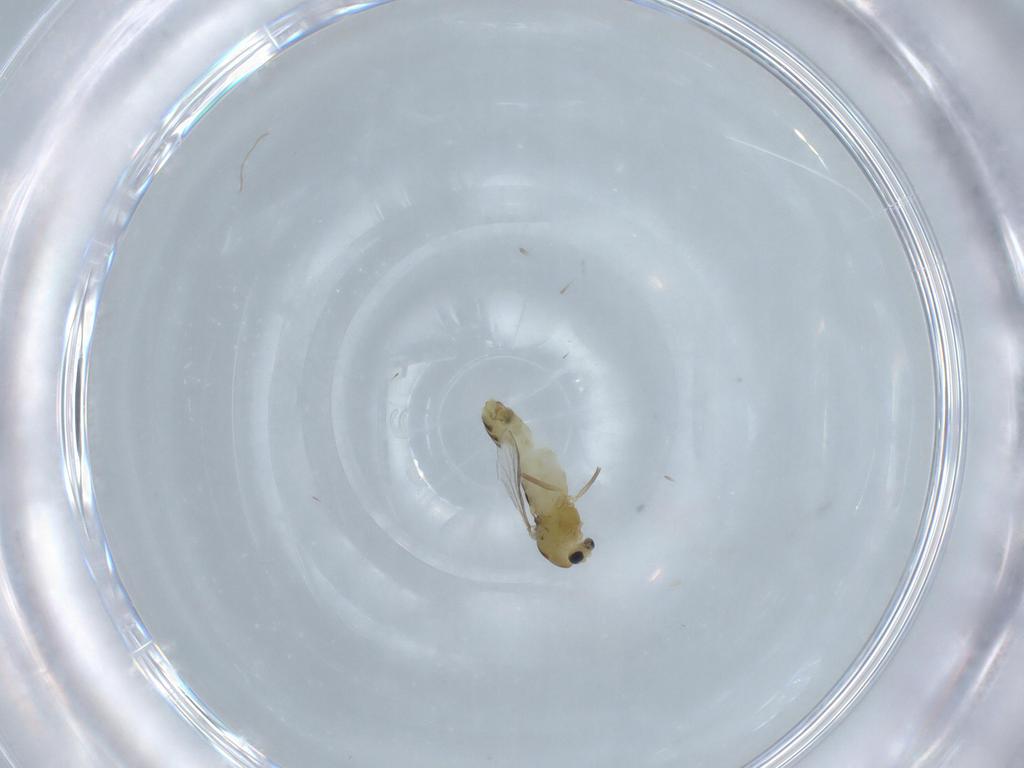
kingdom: Animalia
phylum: Arthropoda
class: Insecta
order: Diptera
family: Chironomidae
